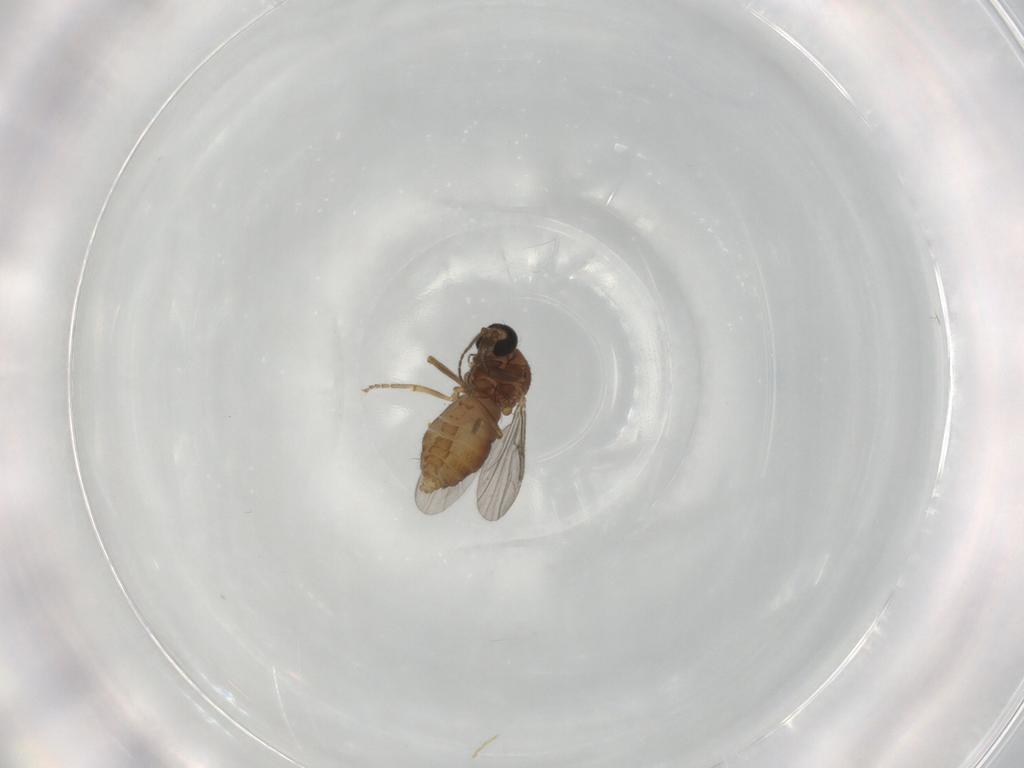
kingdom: Animalia
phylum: Arthropoda
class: Insecta
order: Diptera
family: Ceratopogonidae
